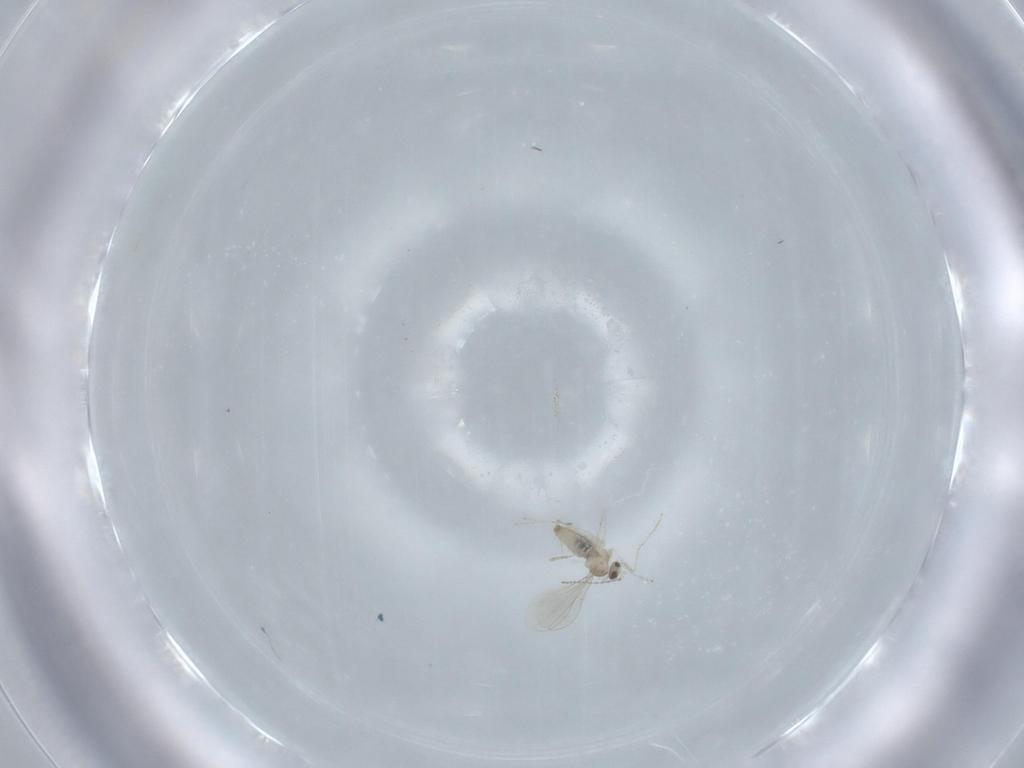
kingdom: Animalia
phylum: Arthropoda
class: Insecta
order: Diptera
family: Cecidomyiidae
